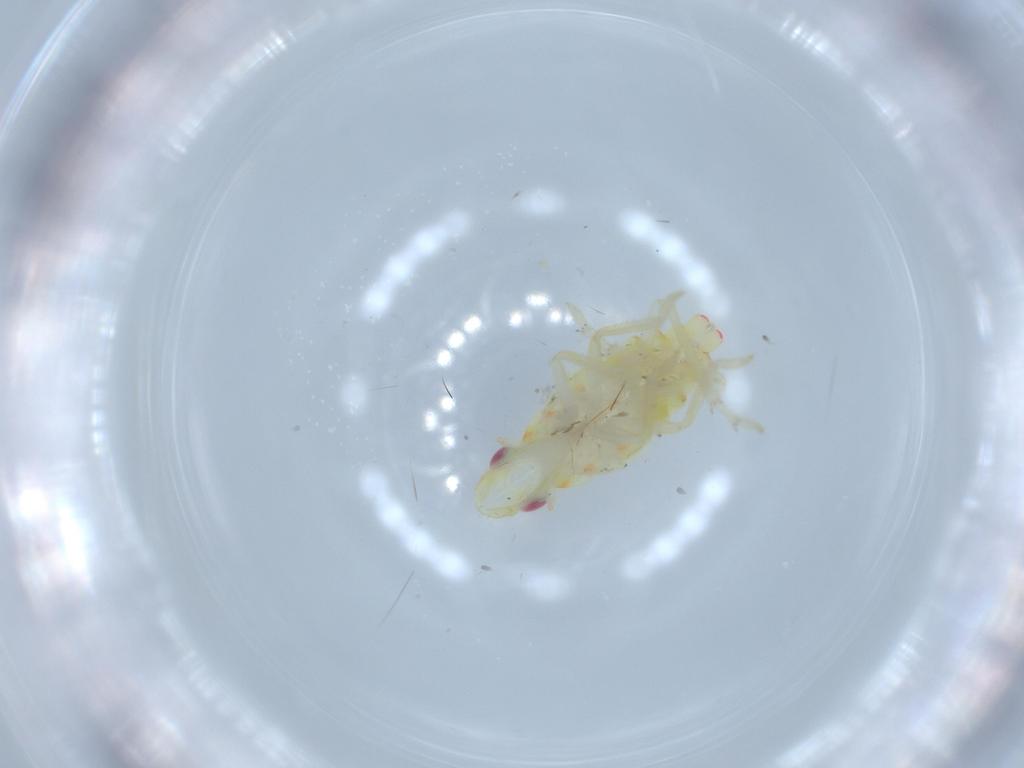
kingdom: Animalia
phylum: Arthropoda
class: Insecta
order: Hemiptera
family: Tropiduchidae
